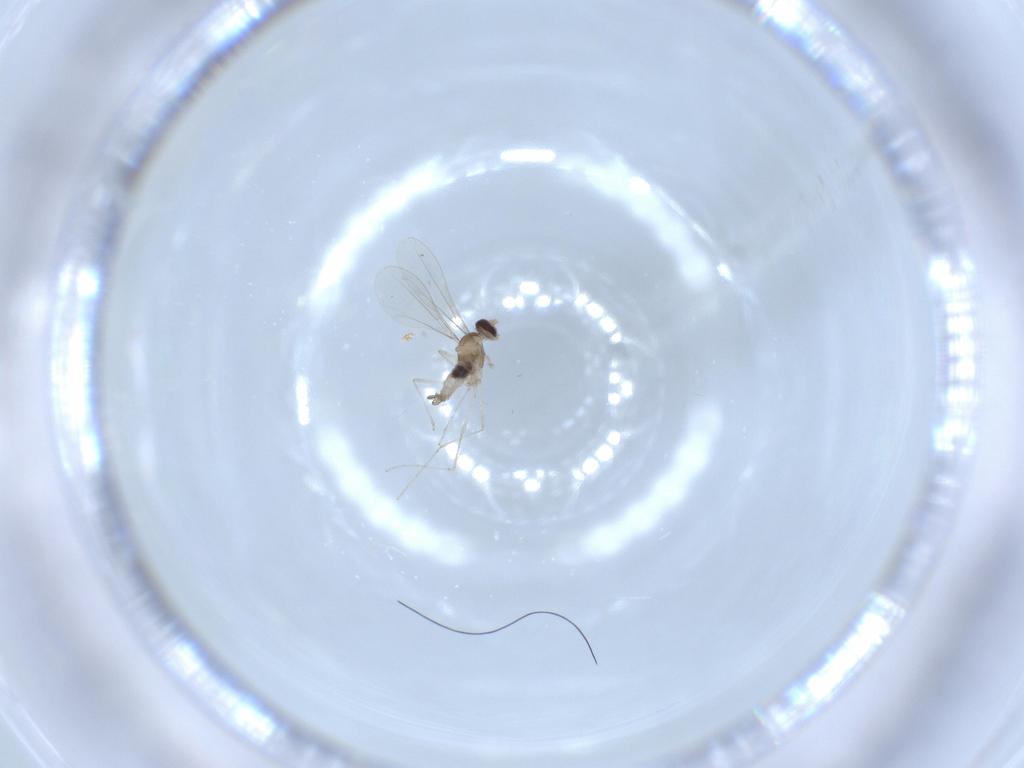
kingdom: Animalia
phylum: Arthropoda
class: Insecta
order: Diptera
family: Cecidomyiidae
